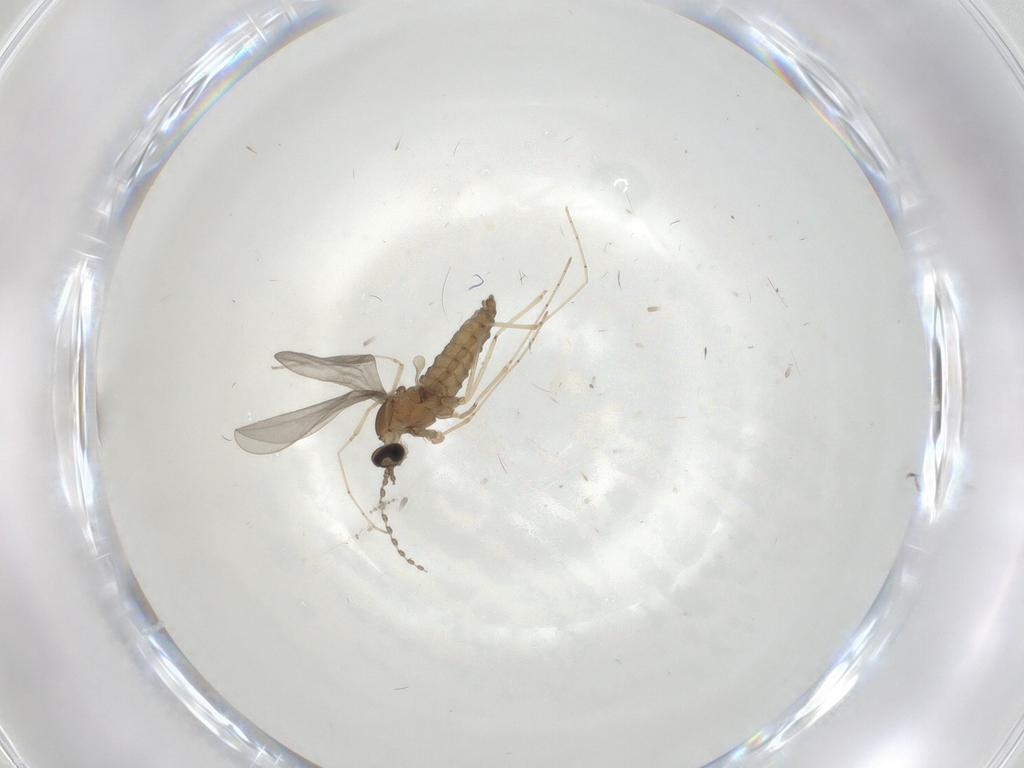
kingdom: Animalia
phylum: Arthropoda
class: Insecta
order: Diptera
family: Cecidomyiidae
